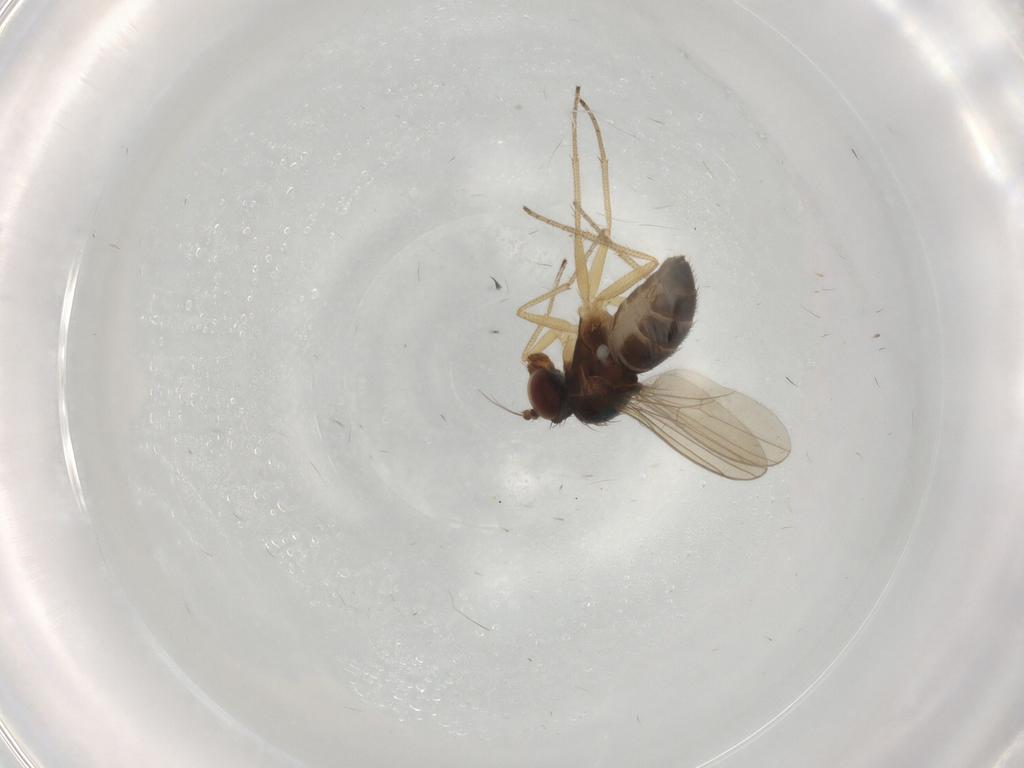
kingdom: Animalia
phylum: Arthropoda
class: Insecta
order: Diptera
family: Dolichopodidae
